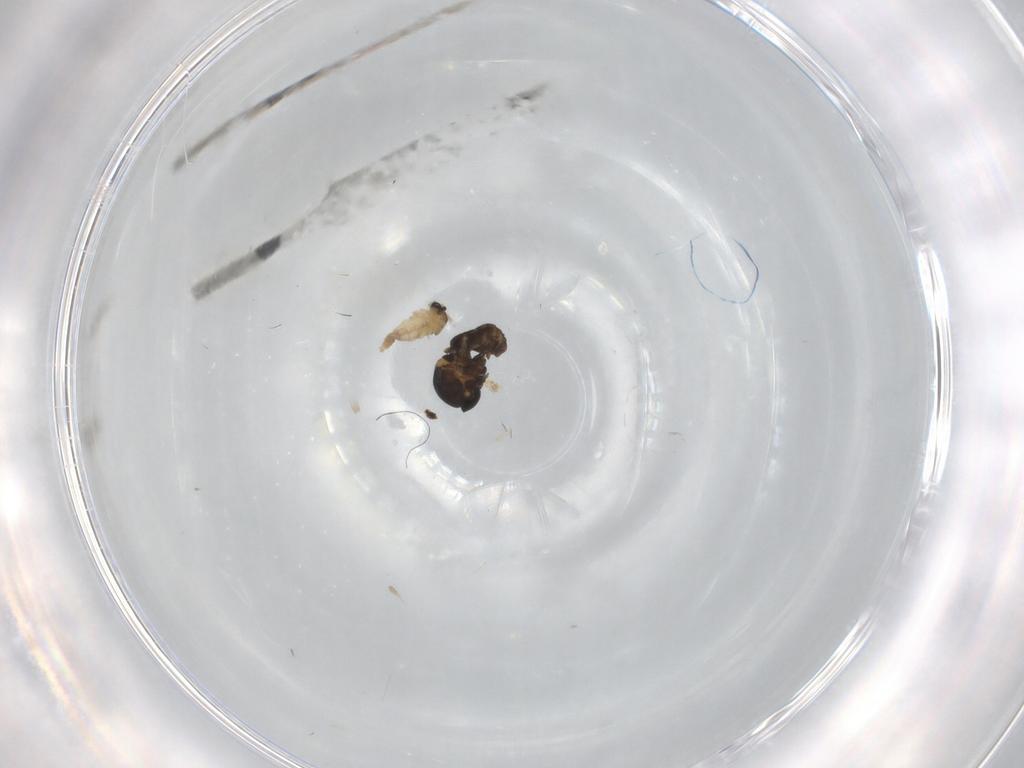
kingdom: Animalia
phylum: Arthropoda
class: Insecta
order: Diptera
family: Cecidomyiidae
